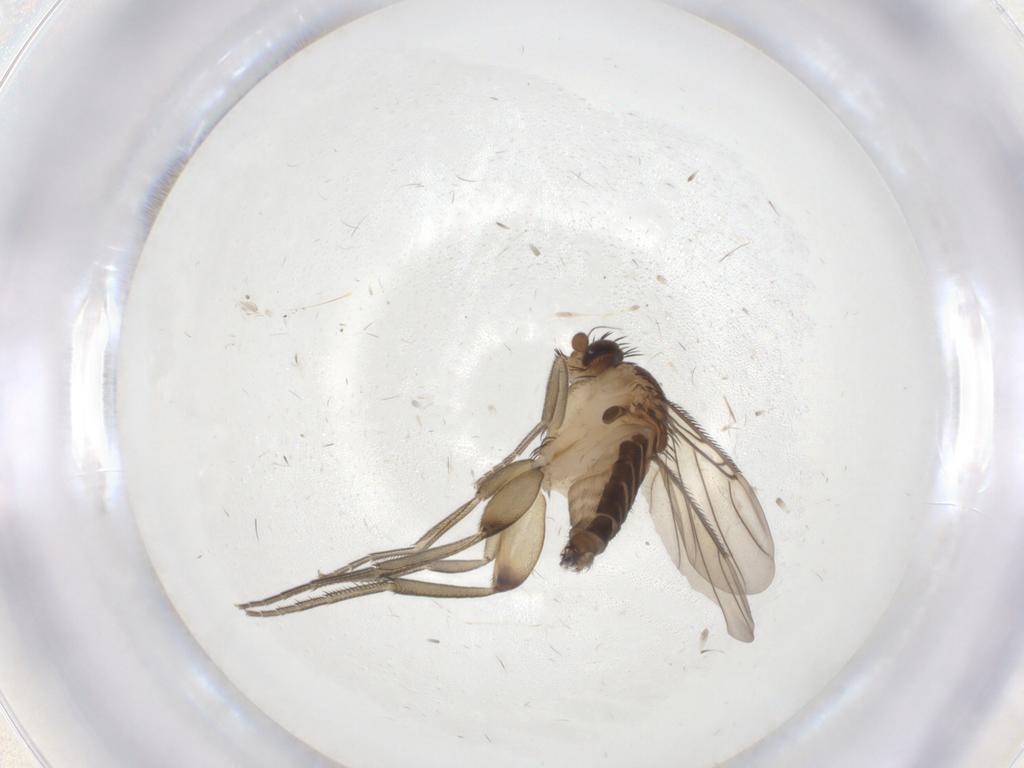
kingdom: Animalia
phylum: Arthropoda
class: Insecta
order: Diptera
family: Phoridae
